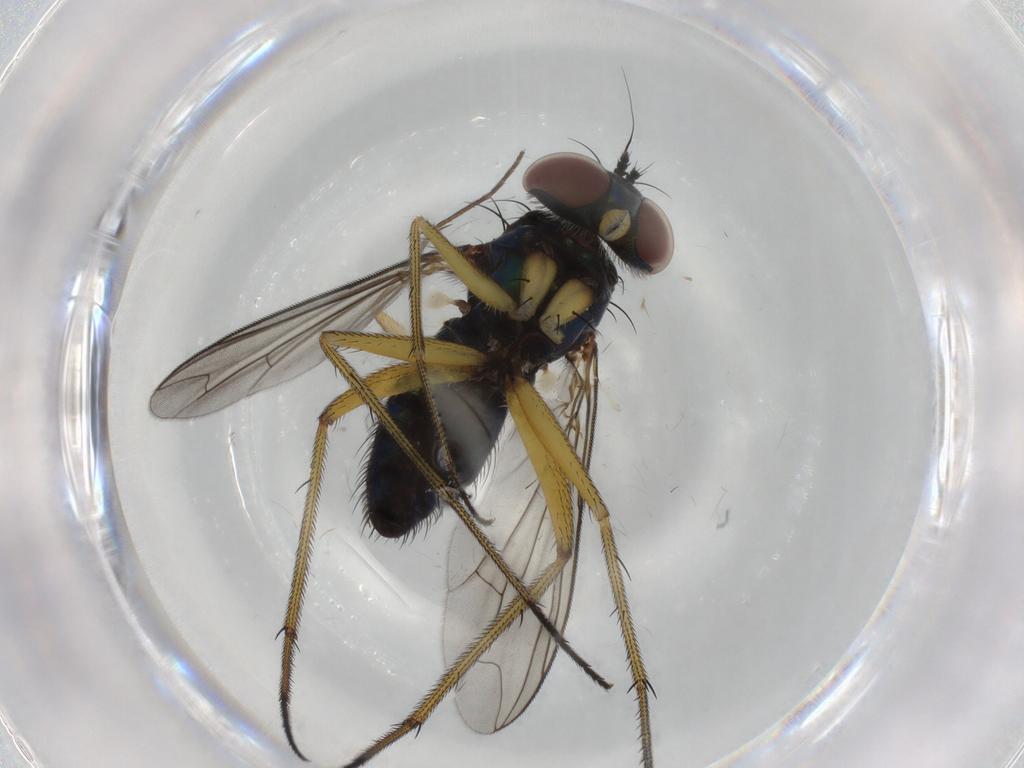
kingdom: Animalia
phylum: Arthropoda
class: Insecta
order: Diptera
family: Dolichopodidae
